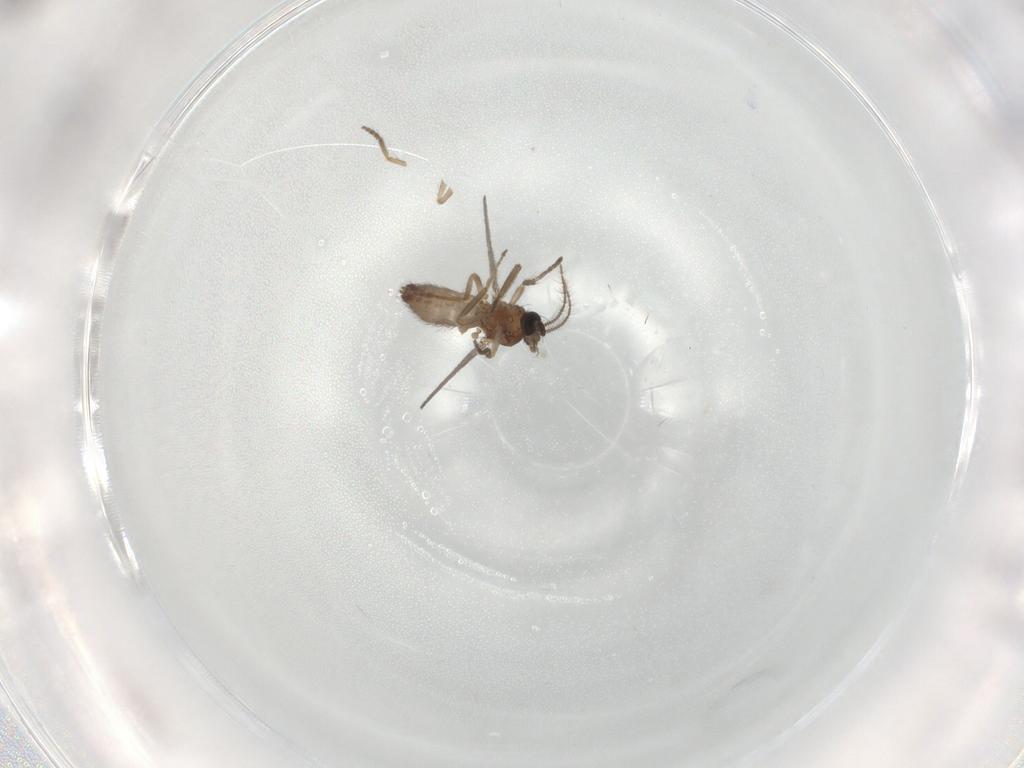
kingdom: Animalia
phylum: Arthropoda
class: Insecta
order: Diptera
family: Ceratopogonidae
